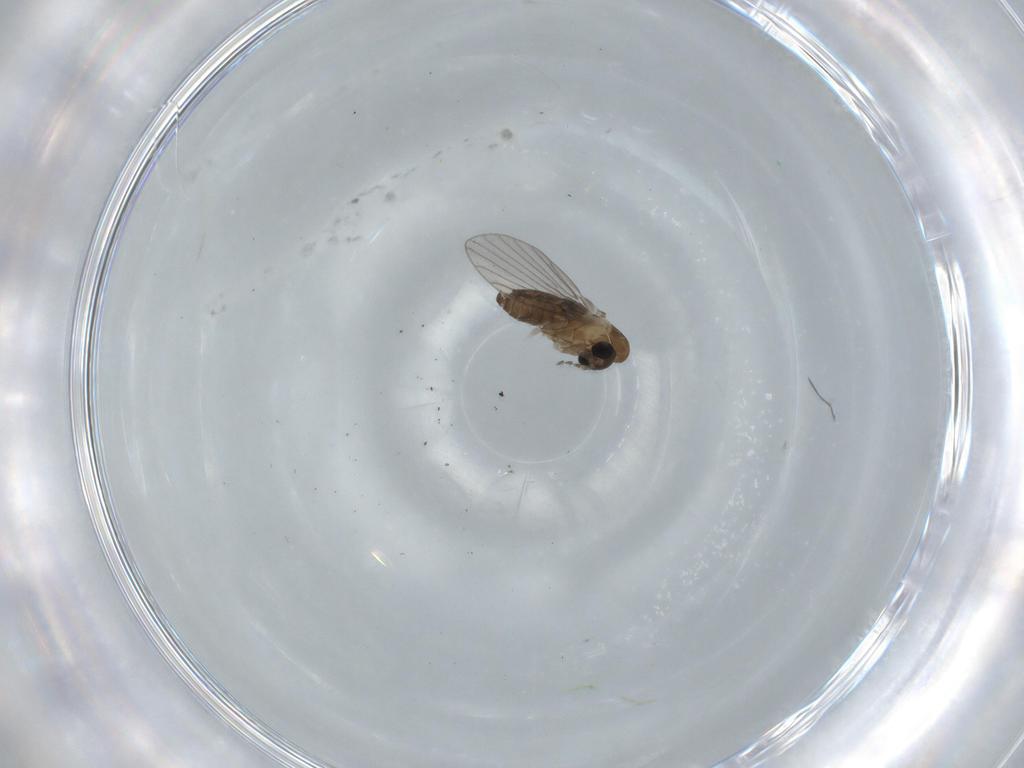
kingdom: Animalia
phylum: Arthropoda
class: Insecta
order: Diptera
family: Psychodidae
